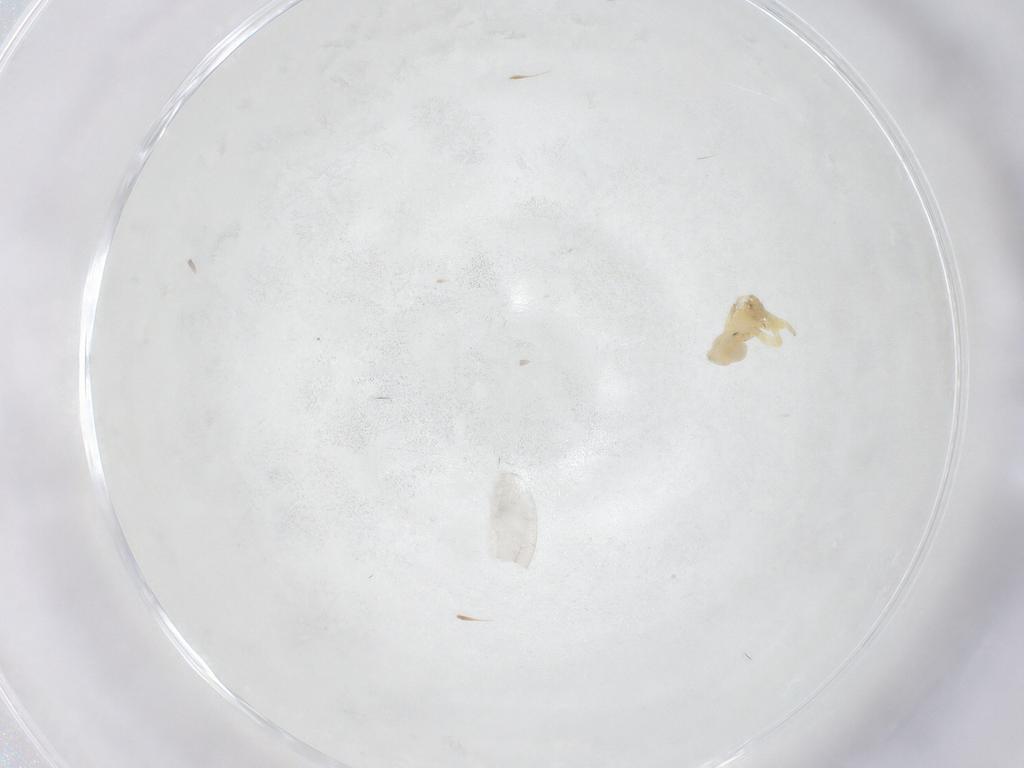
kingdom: Animalia
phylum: Arthropoda
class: Arachnida
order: Araneae
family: Oonopidae
